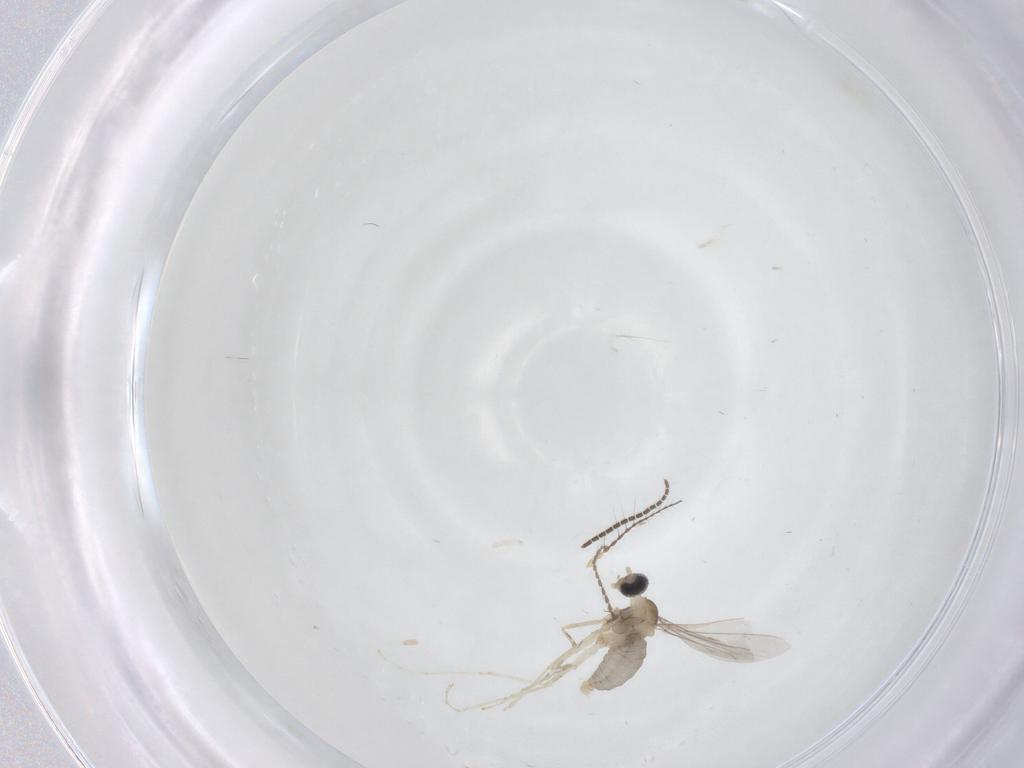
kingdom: Animalia
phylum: Arthropoda
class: Insecta
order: Diptera
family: Cecidomyiidae
